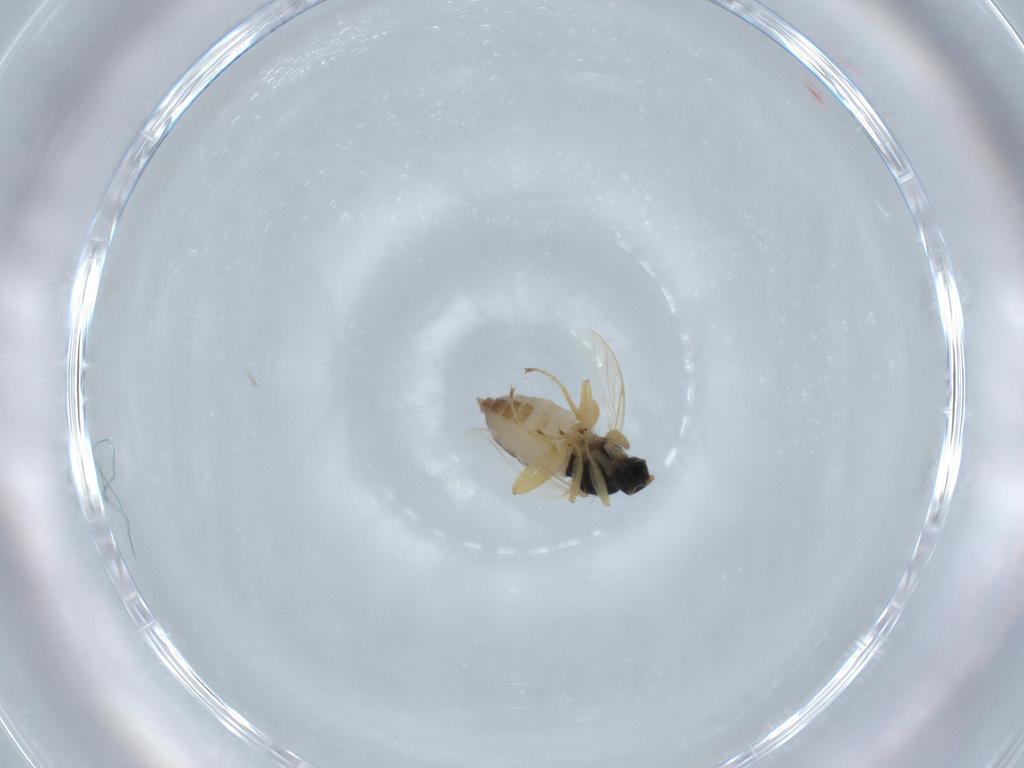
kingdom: Animalia
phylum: Arthropoda
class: Insecta
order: Diptera
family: Hybotidae
